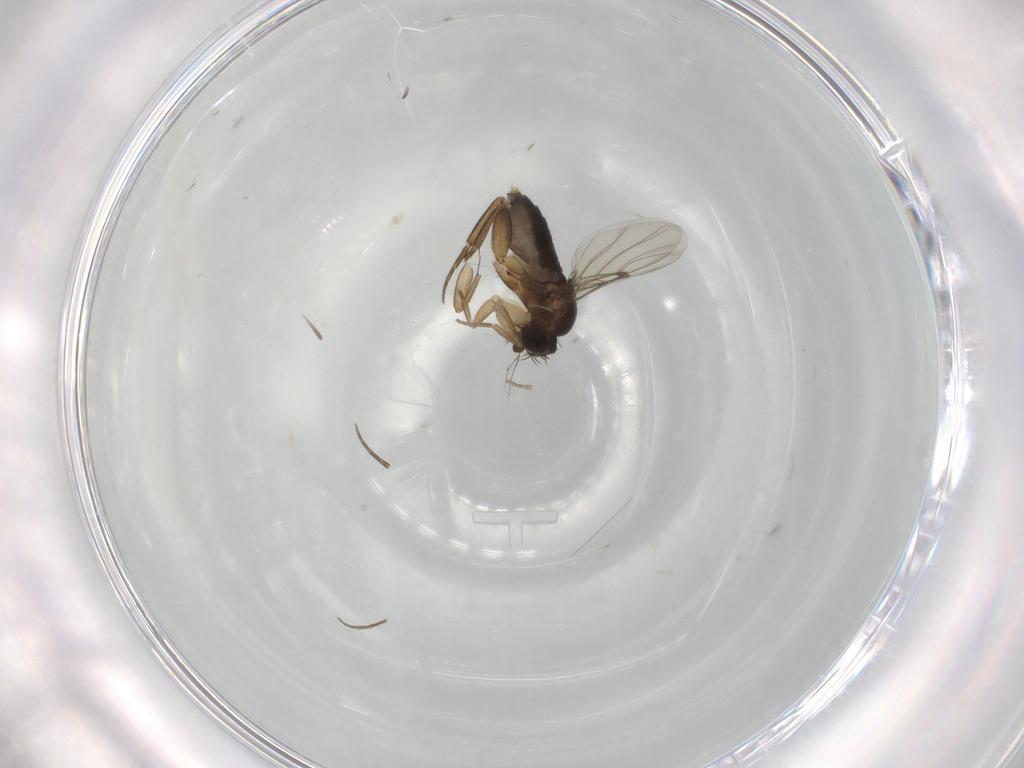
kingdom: Animalia
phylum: Arthropoda
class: Insecta
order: Diptera
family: Phoridae
